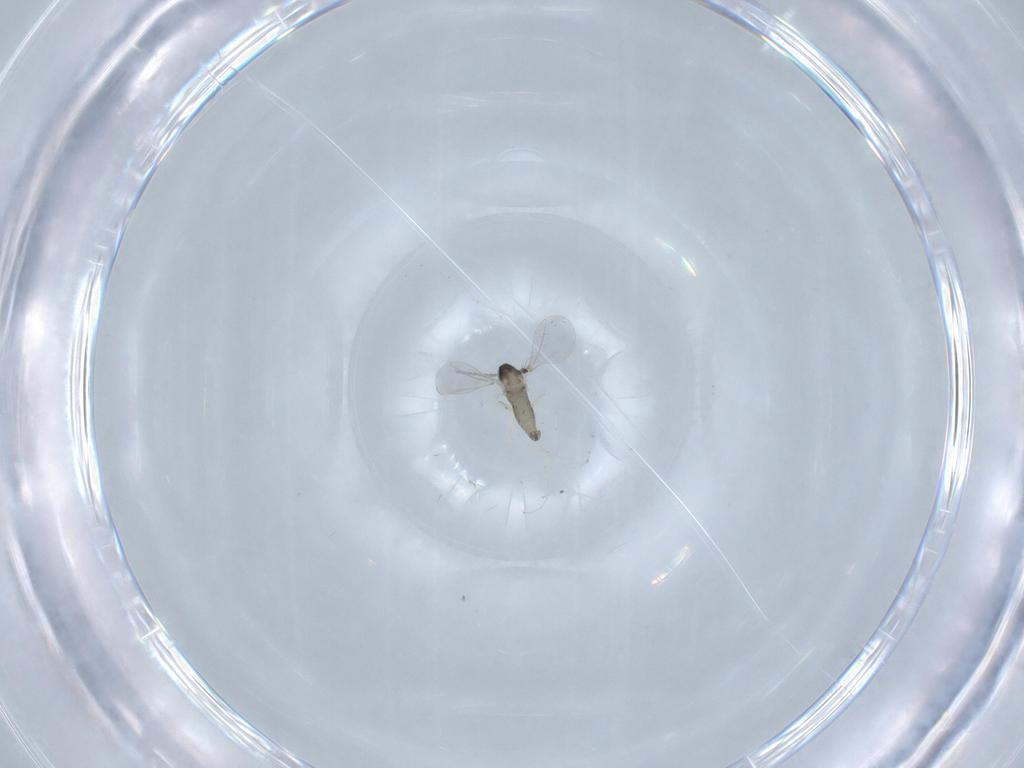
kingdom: Animalia
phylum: Arthropoda
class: Insecta
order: Diptera
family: Cecidomyiidae
